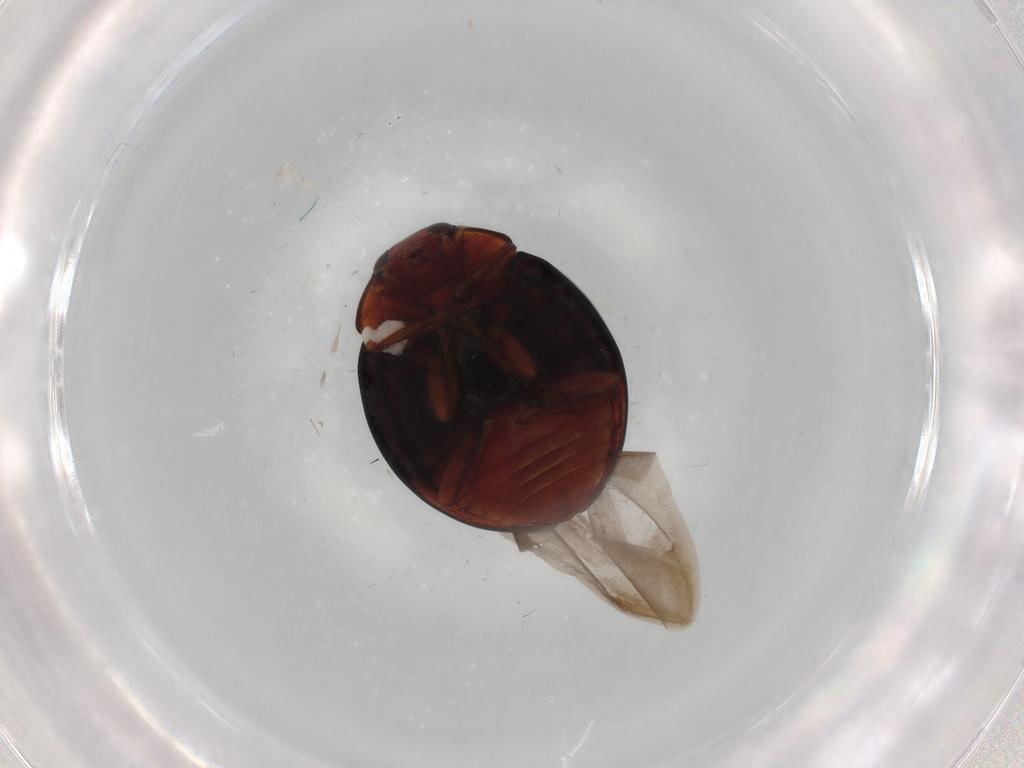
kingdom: Animalia
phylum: Arthropoda
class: Insecta
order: Coleoptera
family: Coccinellidae
